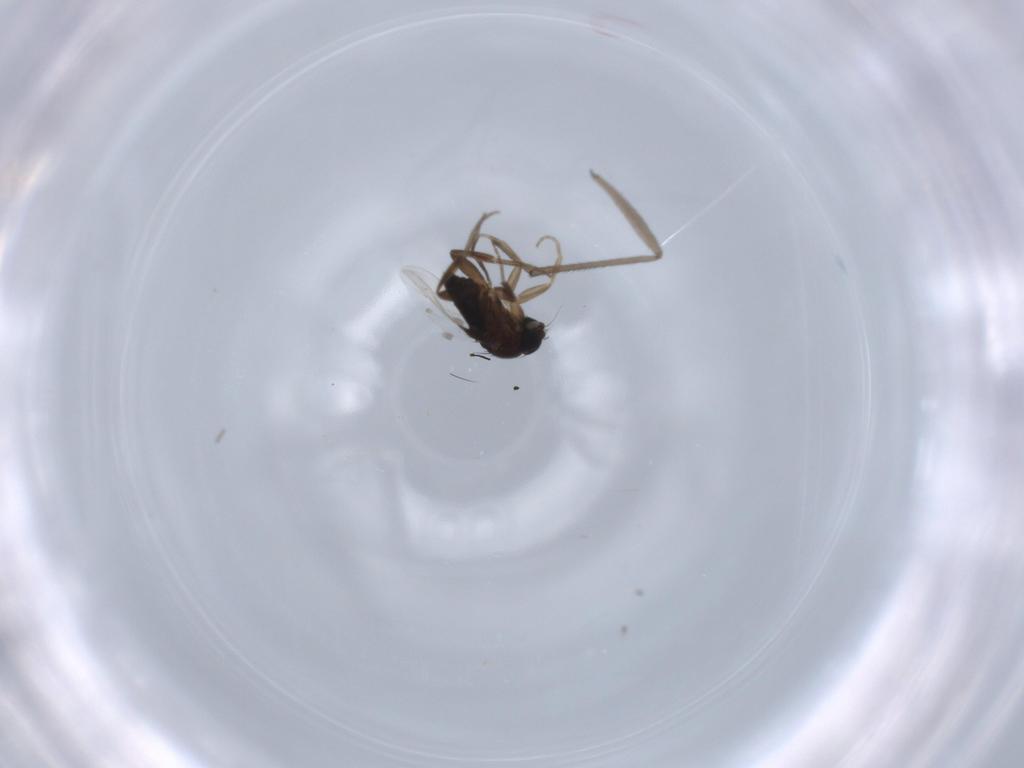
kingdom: Animalia
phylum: Arthropoda
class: Insecta
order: Diptera
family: Phoridae
